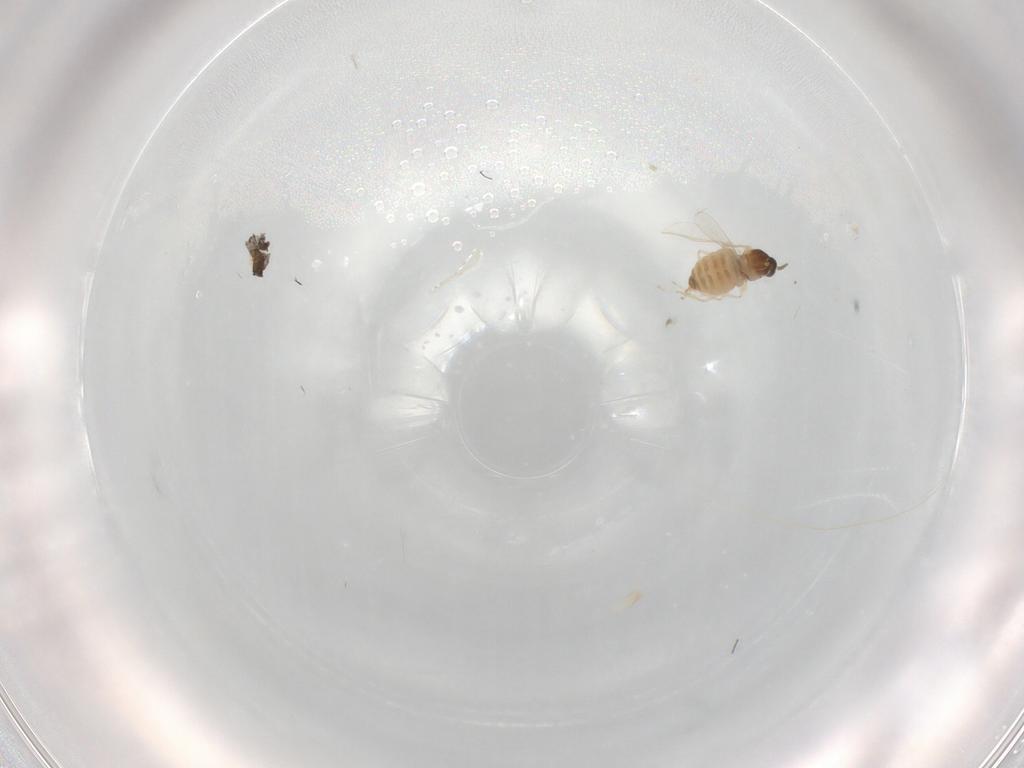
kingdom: Animalia
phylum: Arthropoda
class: Insecta
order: Diptera
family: Cecidomyiidae
